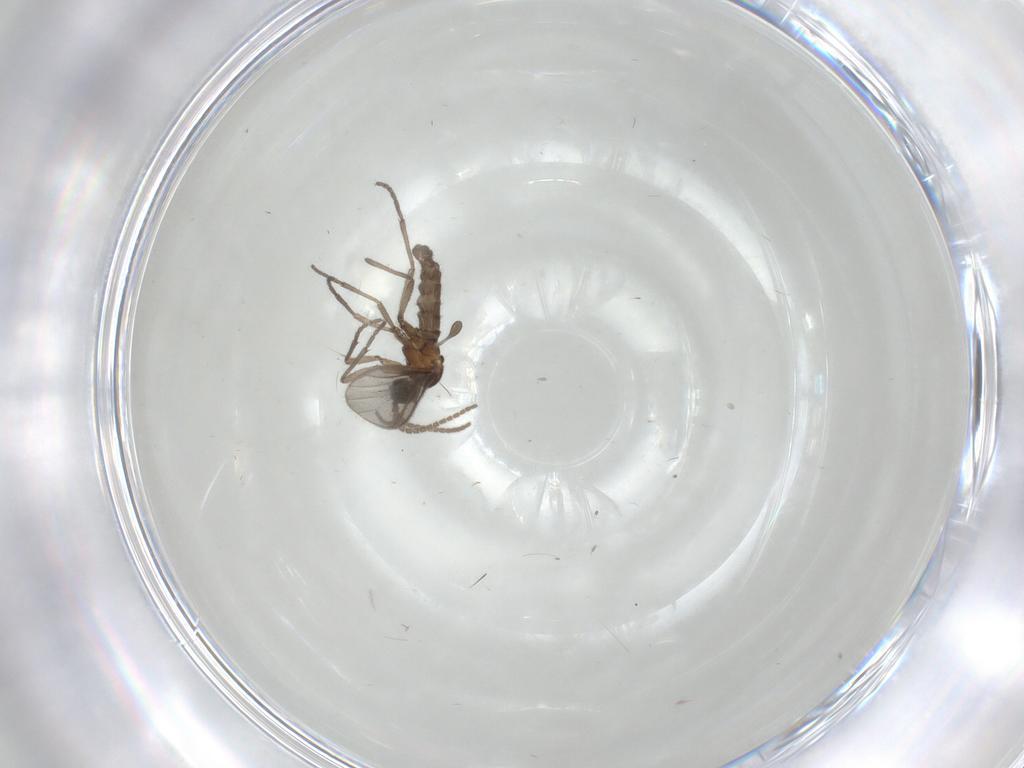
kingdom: Animalia
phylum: Arthropoda
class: Insecta
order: Diptera
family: Sciaridae
